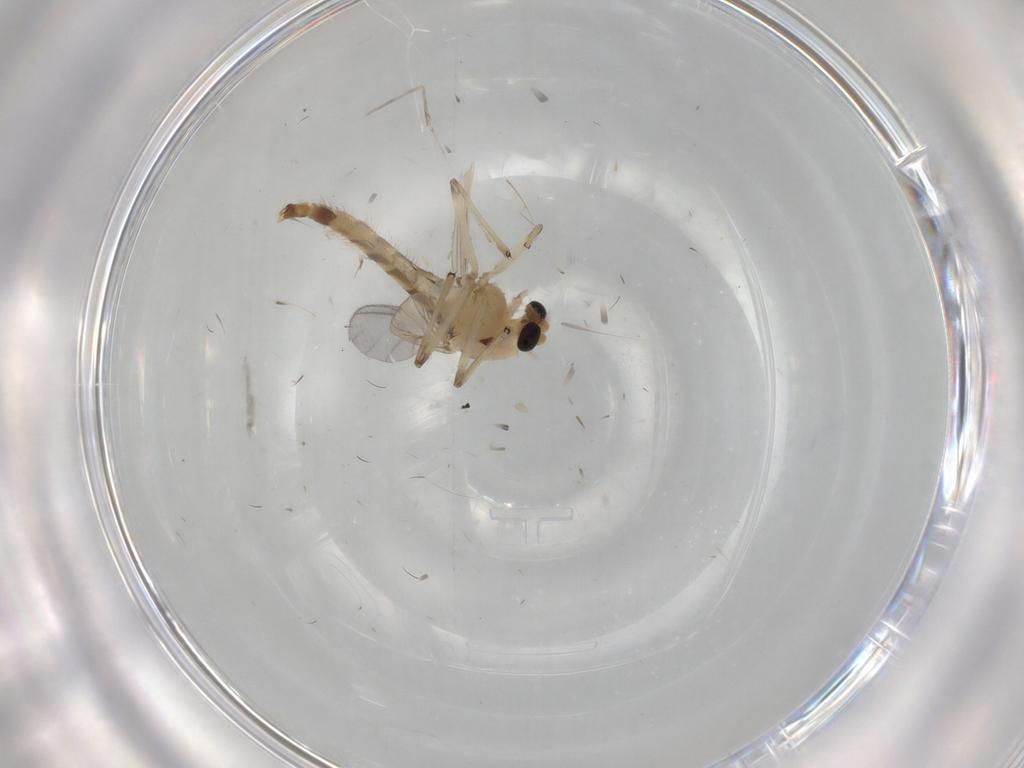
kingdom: Animalia
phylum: Arthropoda
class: Insecta
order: Diptera
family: Chironomidae
